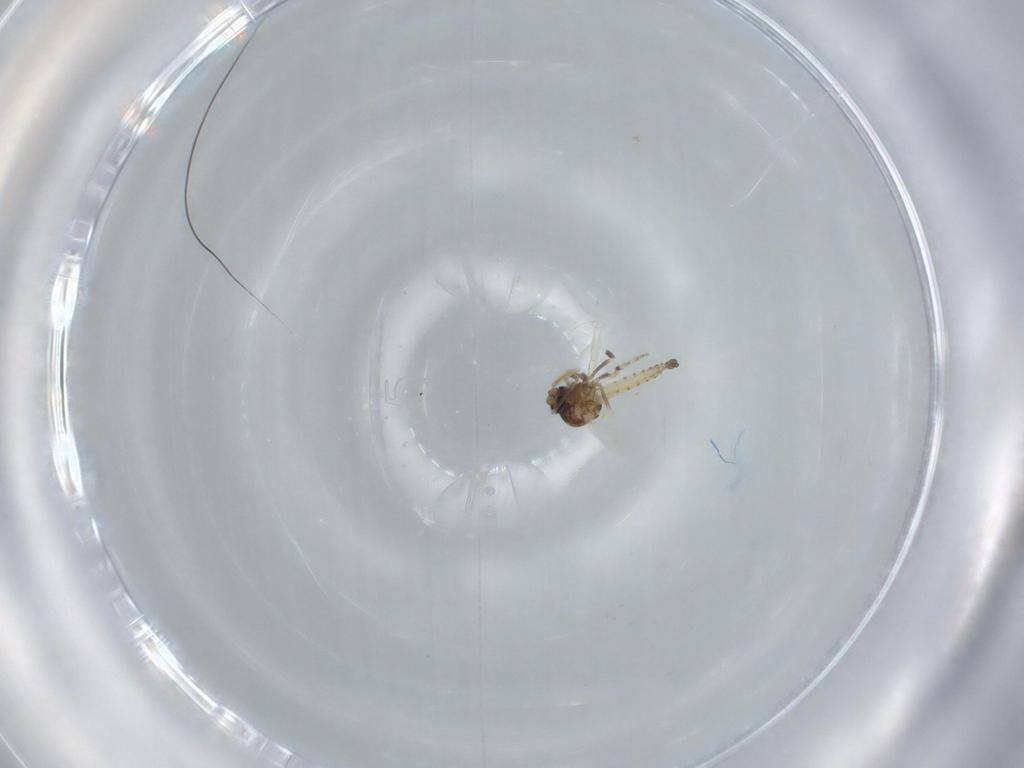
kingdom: Animalia
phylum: Arthropoda
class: Insecta
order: Diptera
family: Ceratopogonidae
